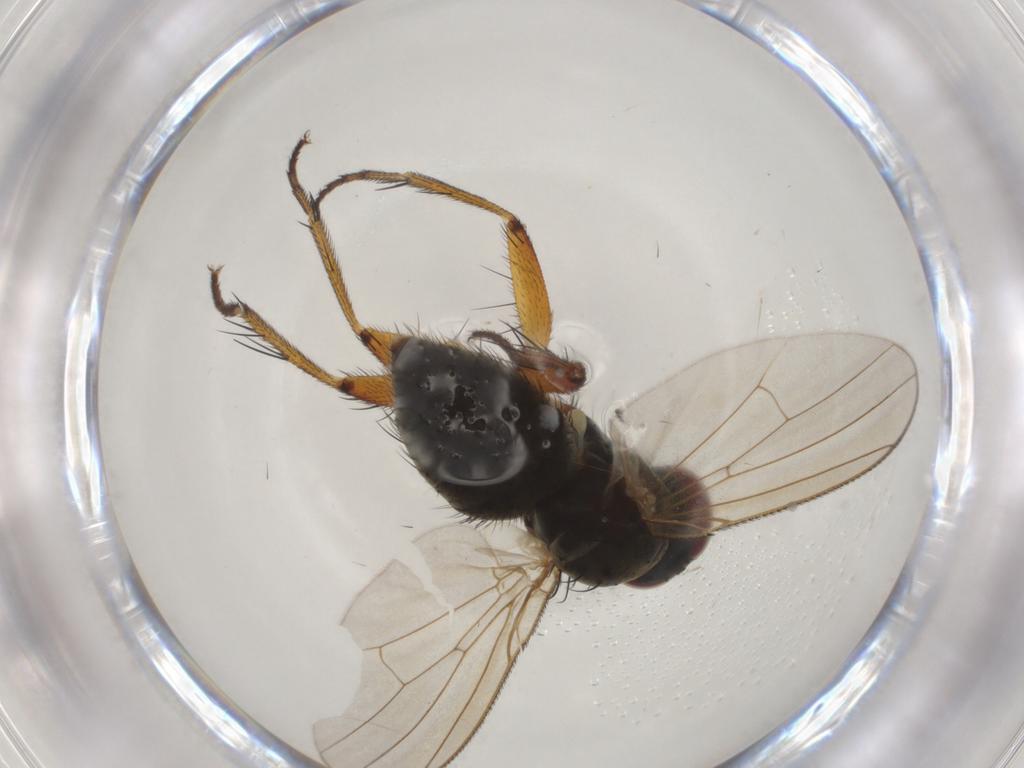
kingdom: Animalia
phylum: Arthropoda
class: Insecta
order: Diptera
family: Muscidae
